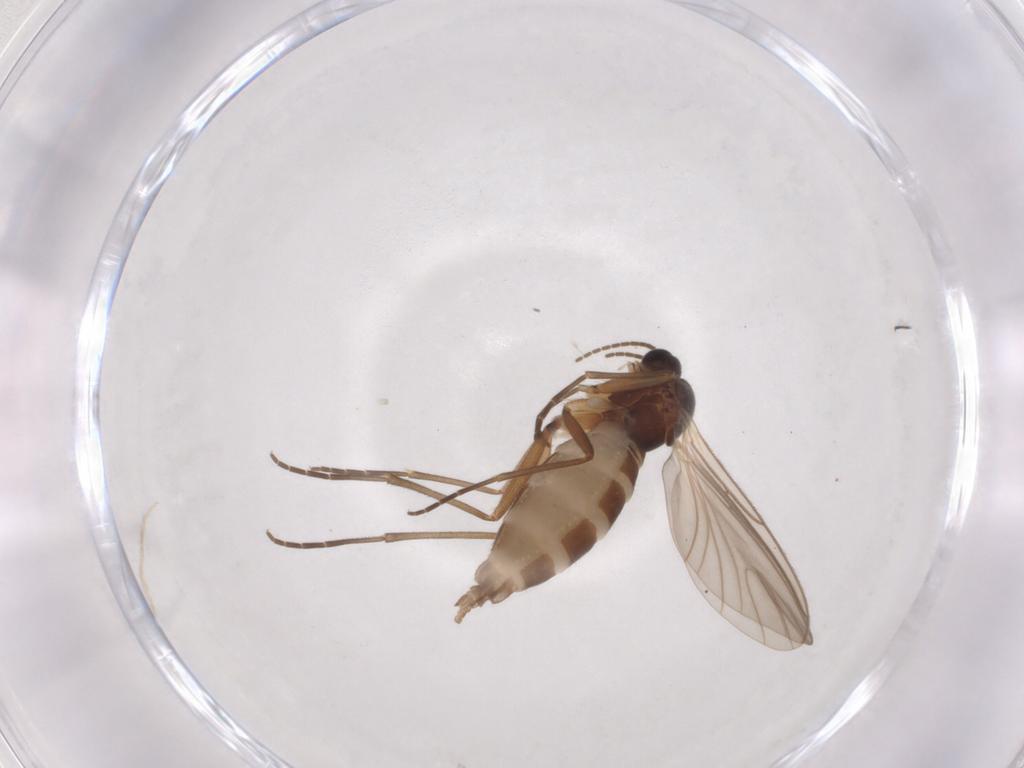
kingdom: Animalia
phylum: Arthropoda
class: Insecta
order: Diptera
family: Sciaridae
